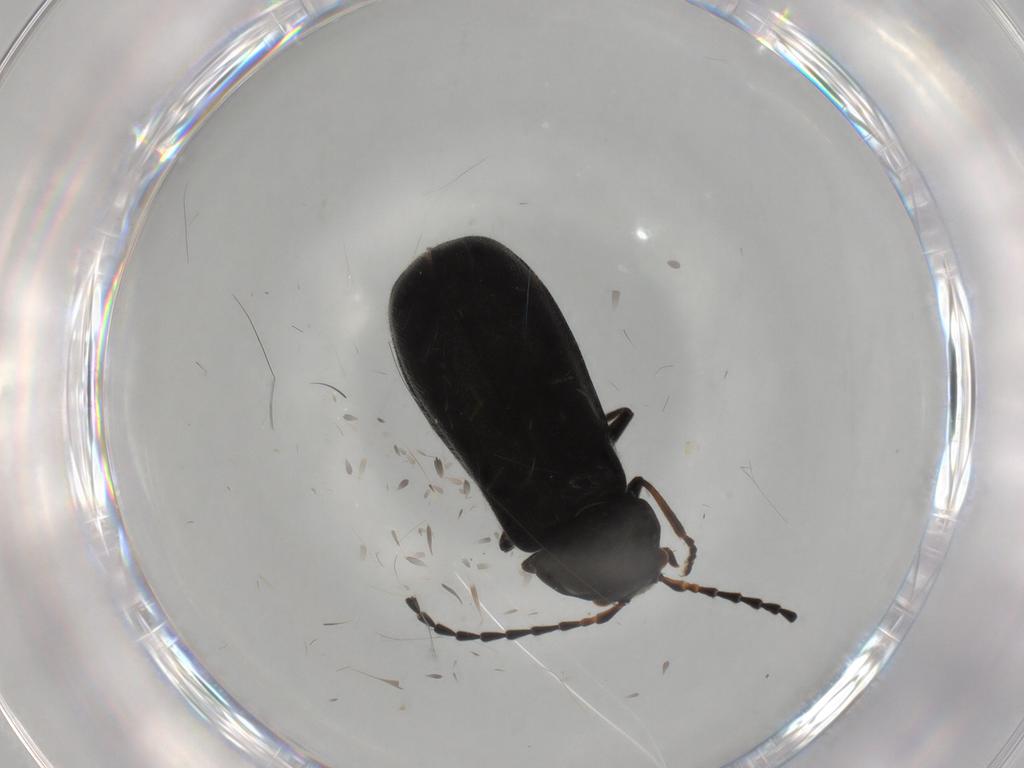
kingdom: Animalia
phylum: Arthropoda
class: Insecta
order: Coleoptera
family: Cantharidae
